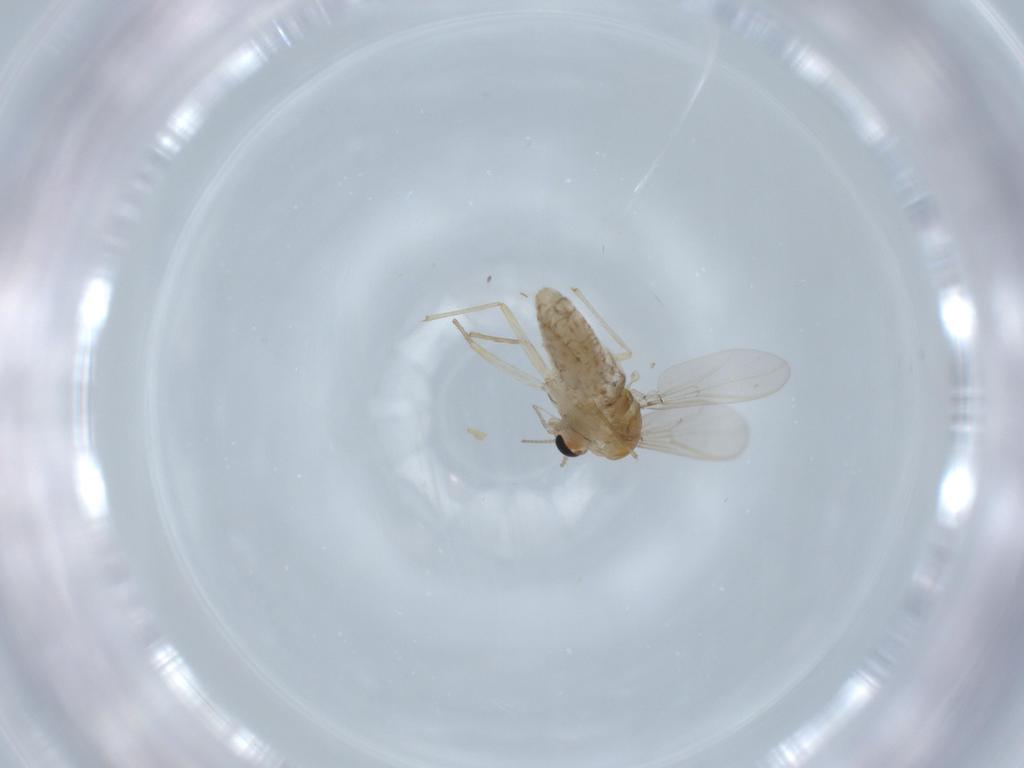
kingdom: Animalia
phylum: Arthropoda
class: Insecta
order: Diptera
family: Chironomidae
